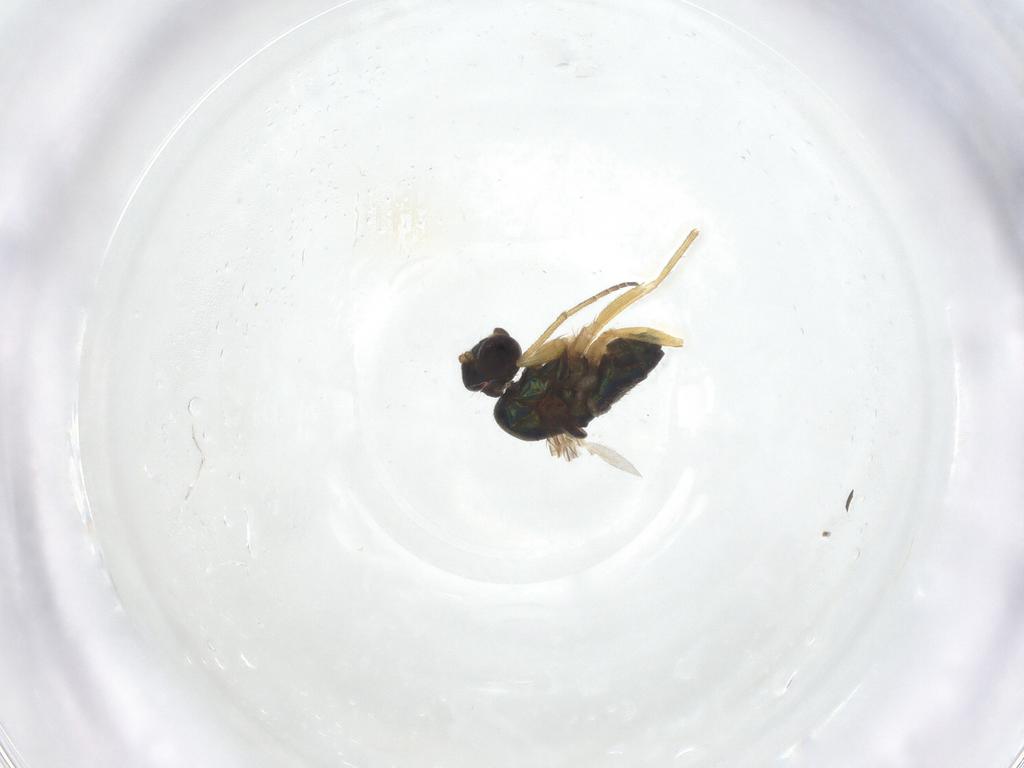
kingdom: Animalia
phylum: Arthropoda
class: Insecta
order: Diptera
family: Dolichopodidae
